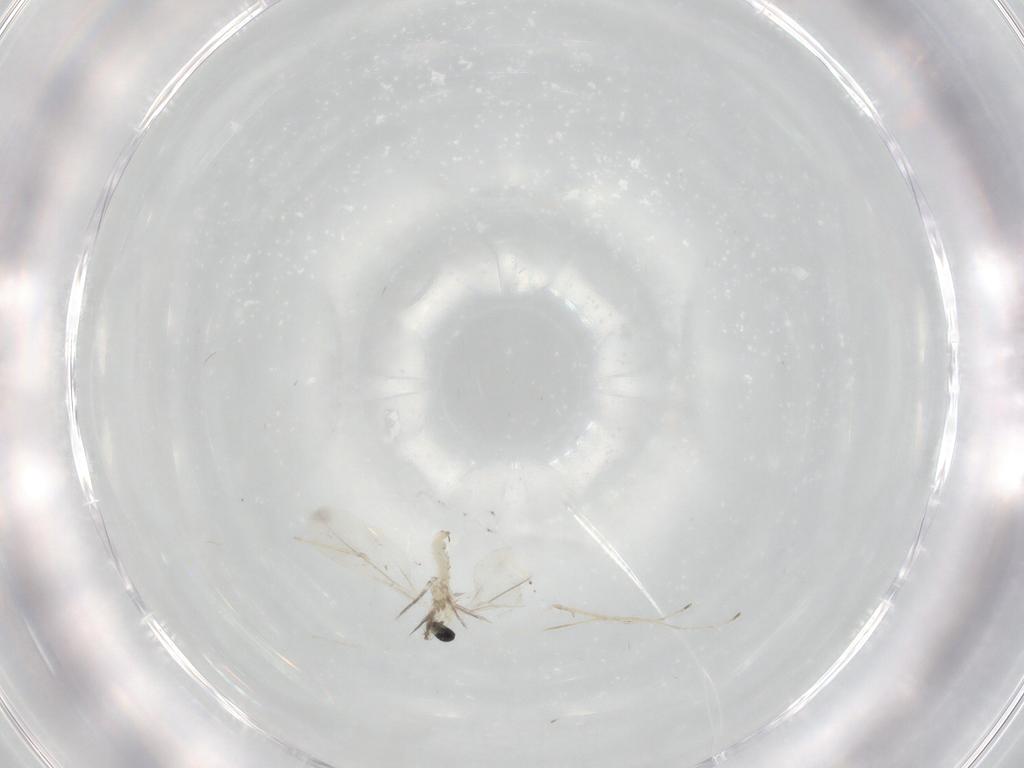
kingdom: Animalia
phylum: Arthropoda
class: Insecta
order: Diptera
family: Cecidomyiidae
